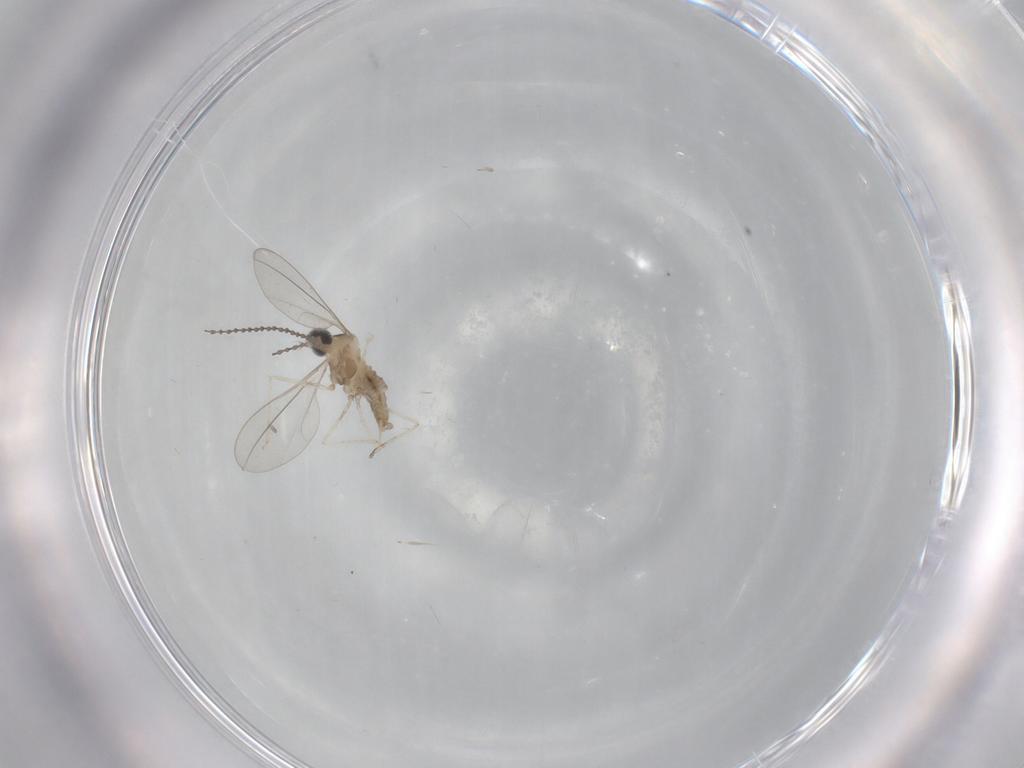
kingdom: Animalia
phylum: Arthropoda
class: Insecta
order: Diptera
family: Cecidomyiidae
